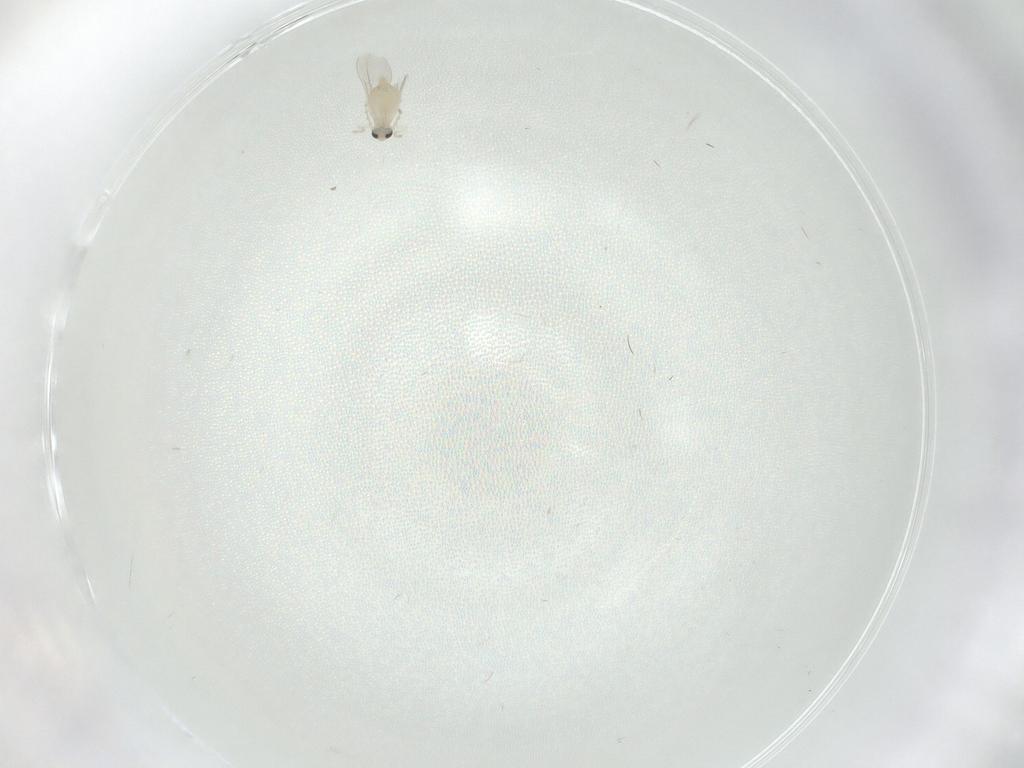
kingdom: Animalia
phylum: Arthropoda
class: Insecta
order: Diptera
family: Cecidomyiidae
